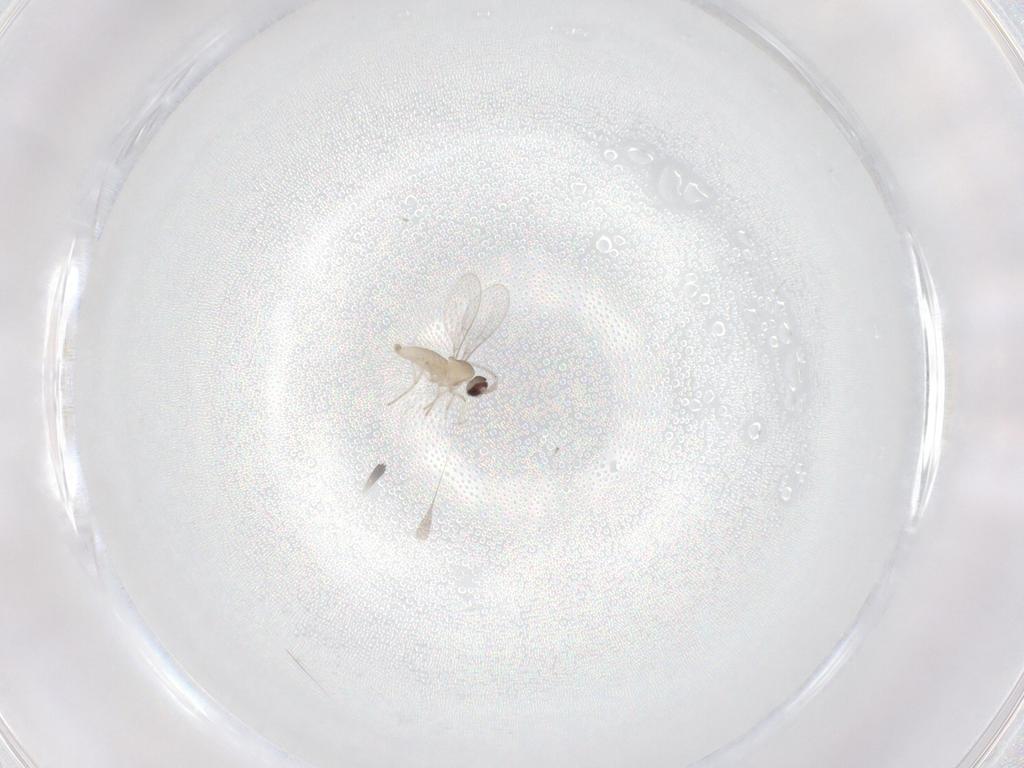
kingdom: Animalia
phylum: Arthropoda
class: Insecta
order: Diptera
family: Cecidomyiidae
